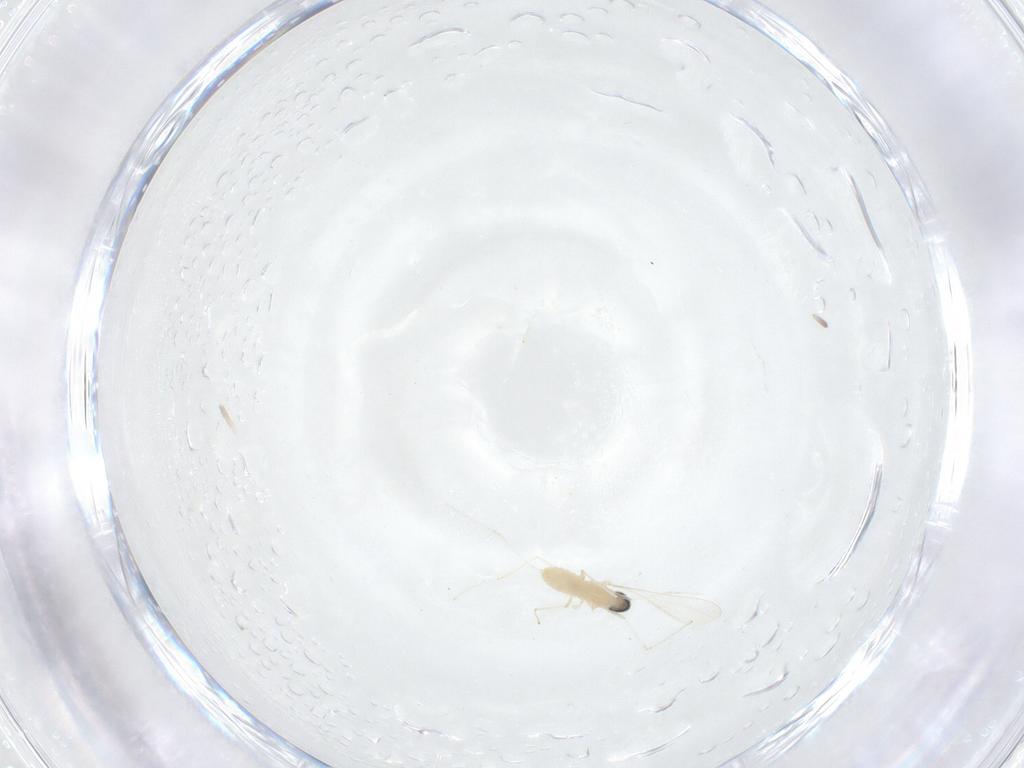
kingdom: Animalia
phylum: Arthropoda
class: Insecta
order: Diptera
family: Cecidomyiidae
